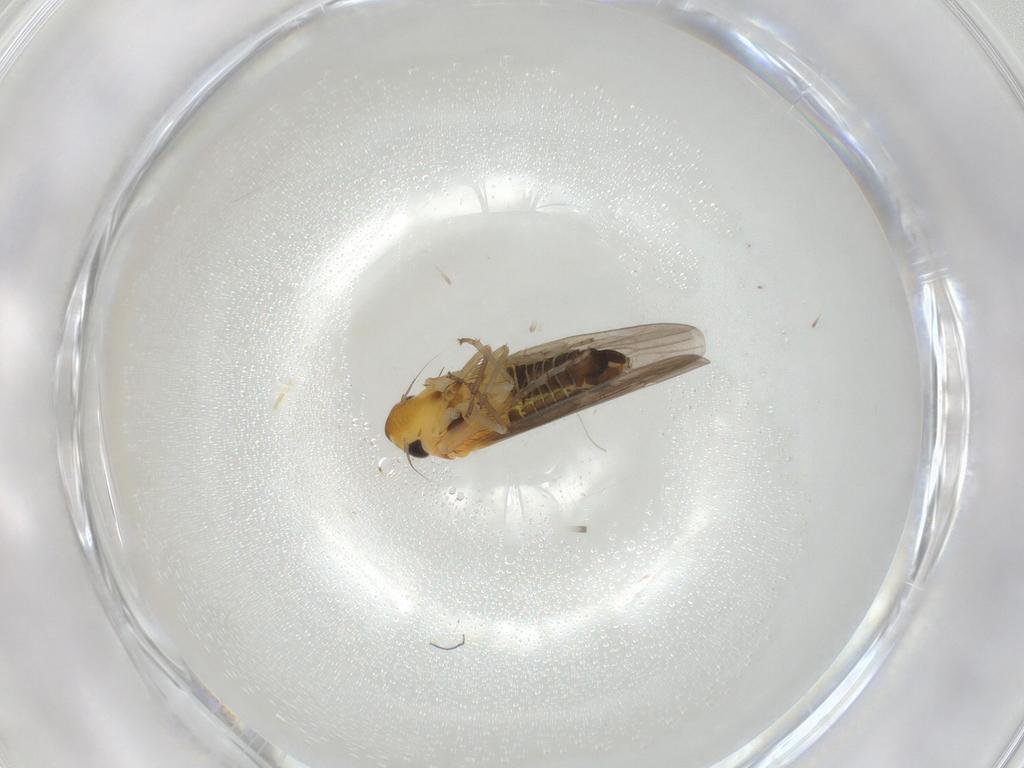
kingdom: Animalia
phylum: Arthropoda
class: Insecta
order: Hemiptera
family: Cicadellidae
